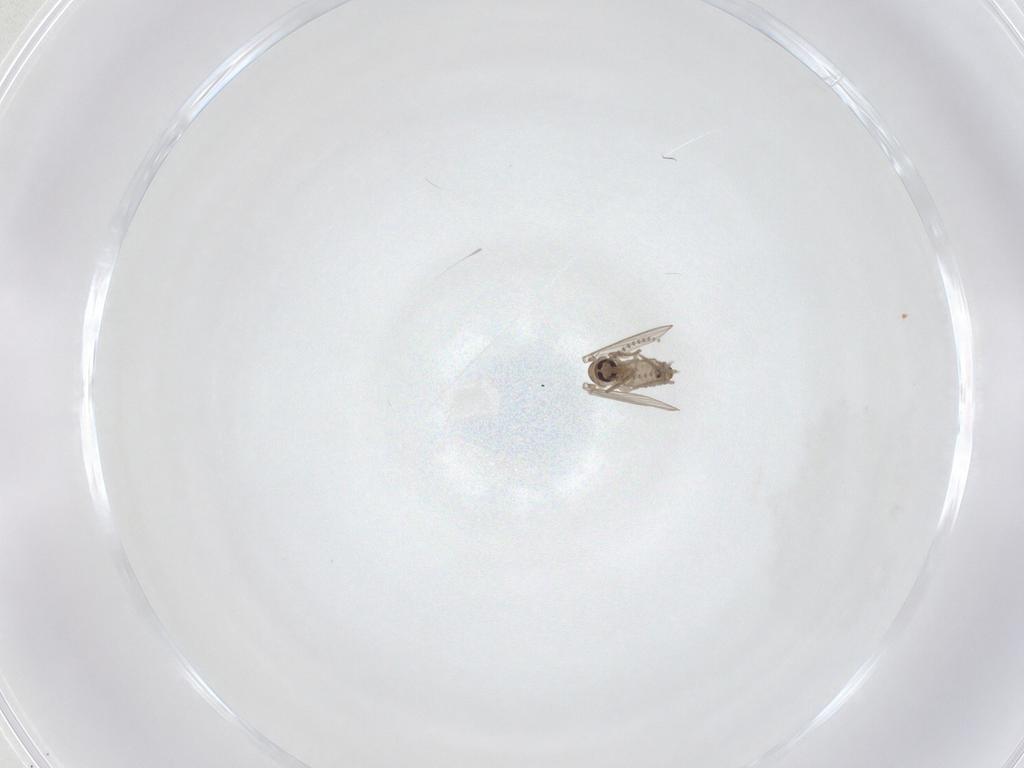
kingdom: Animalia
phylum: Arthropoda
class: Insecta
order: Diptera
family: Psychodidae
